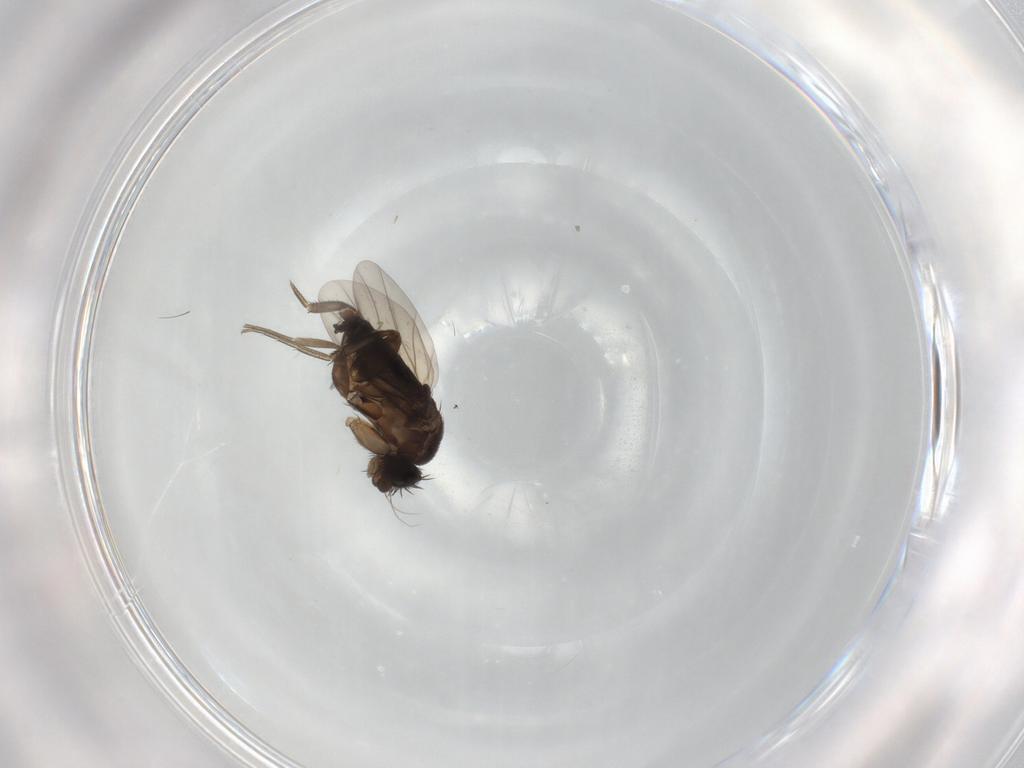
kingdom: Animalia
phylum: Arthropoda
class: Insecta
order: Diptera
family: Phoridae
